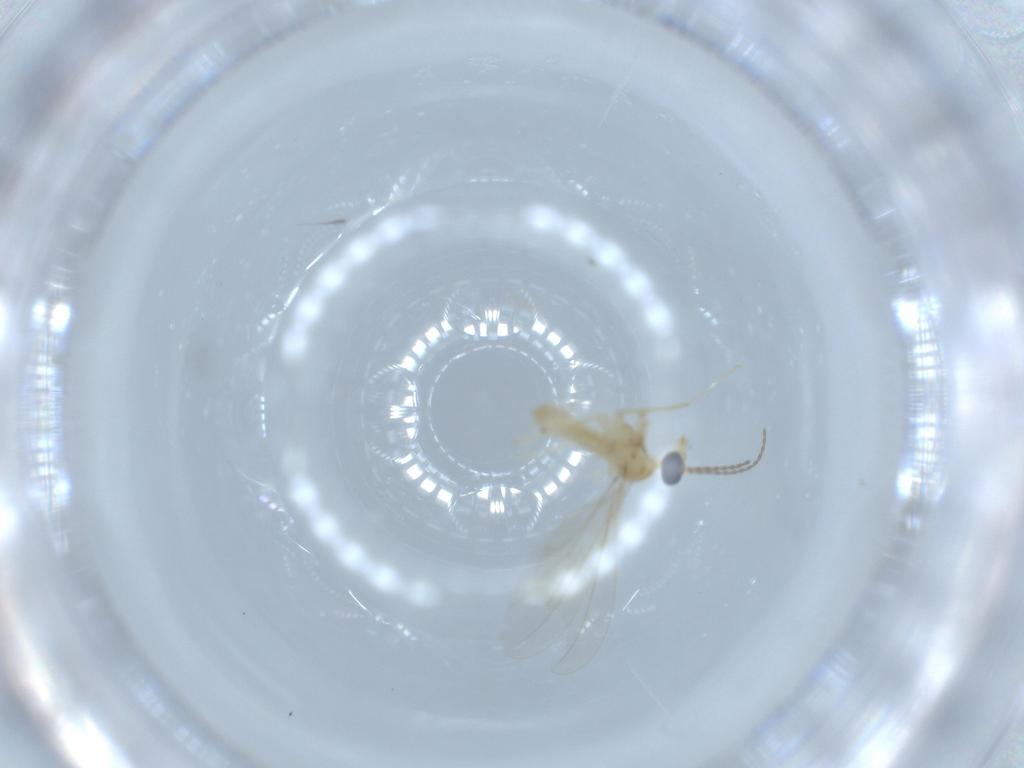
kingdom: Animalia
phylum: Arthropoda
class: Insecta
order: Diptera
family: Cecidomyiidae
